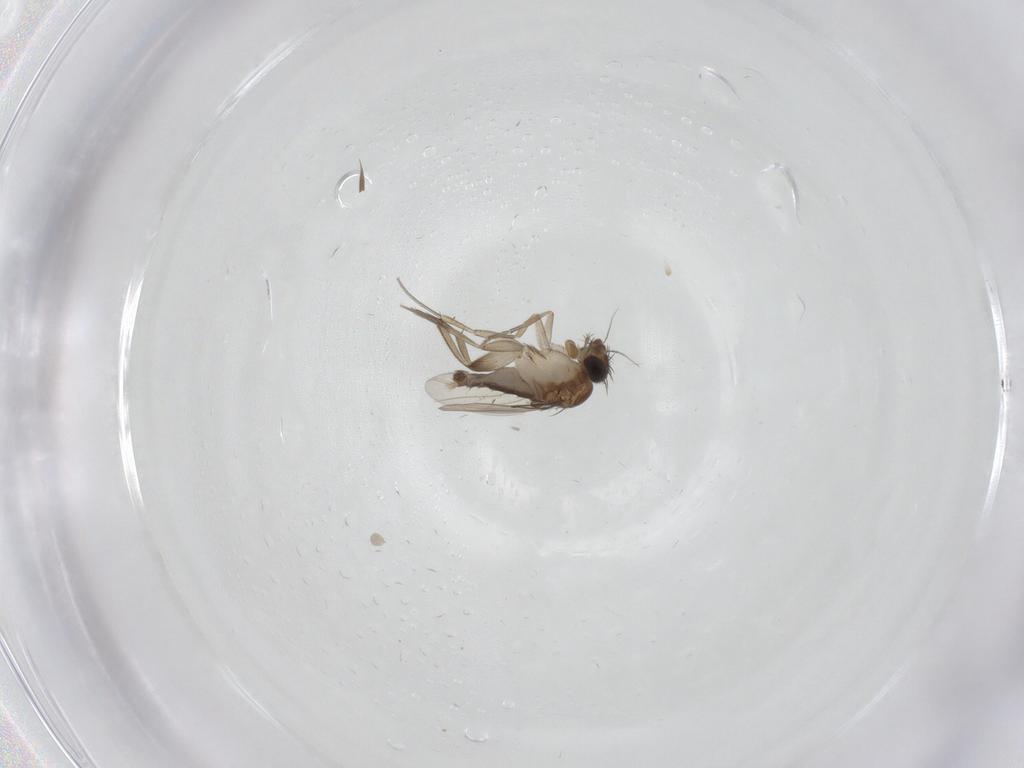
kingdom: Animalia
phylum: Arthropoda
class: Insecta
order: Diptera
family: Phoridae
